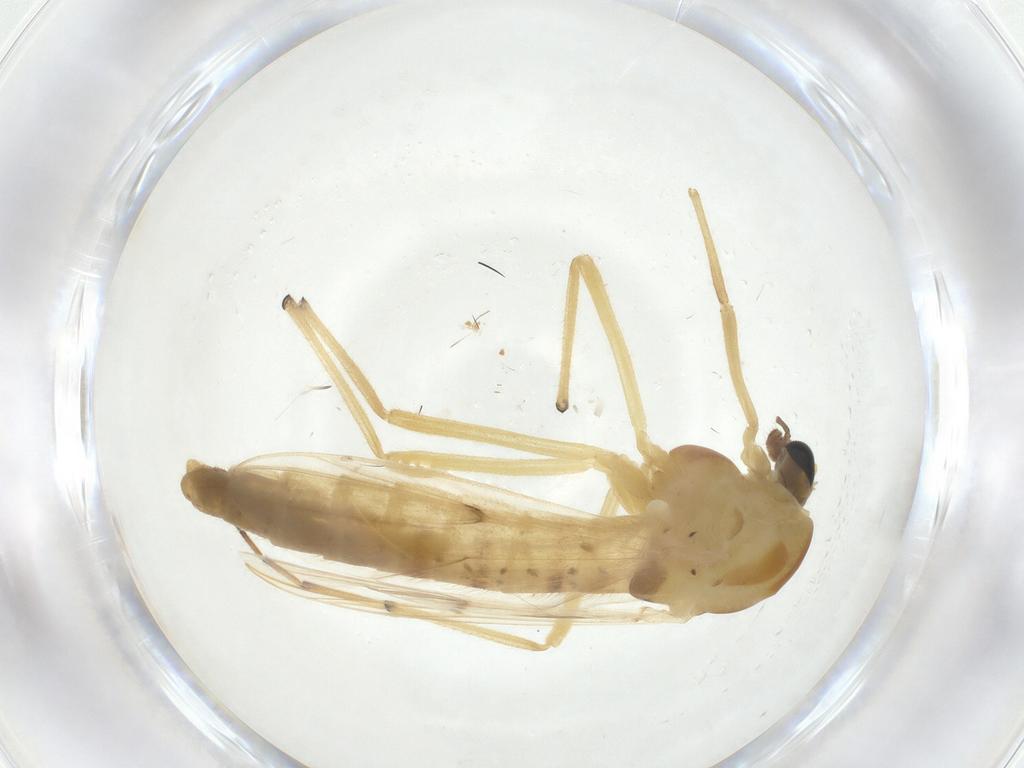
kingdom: Animalia
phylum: Arthropoda
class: Insecta
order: Diptera
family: Chironomidae
